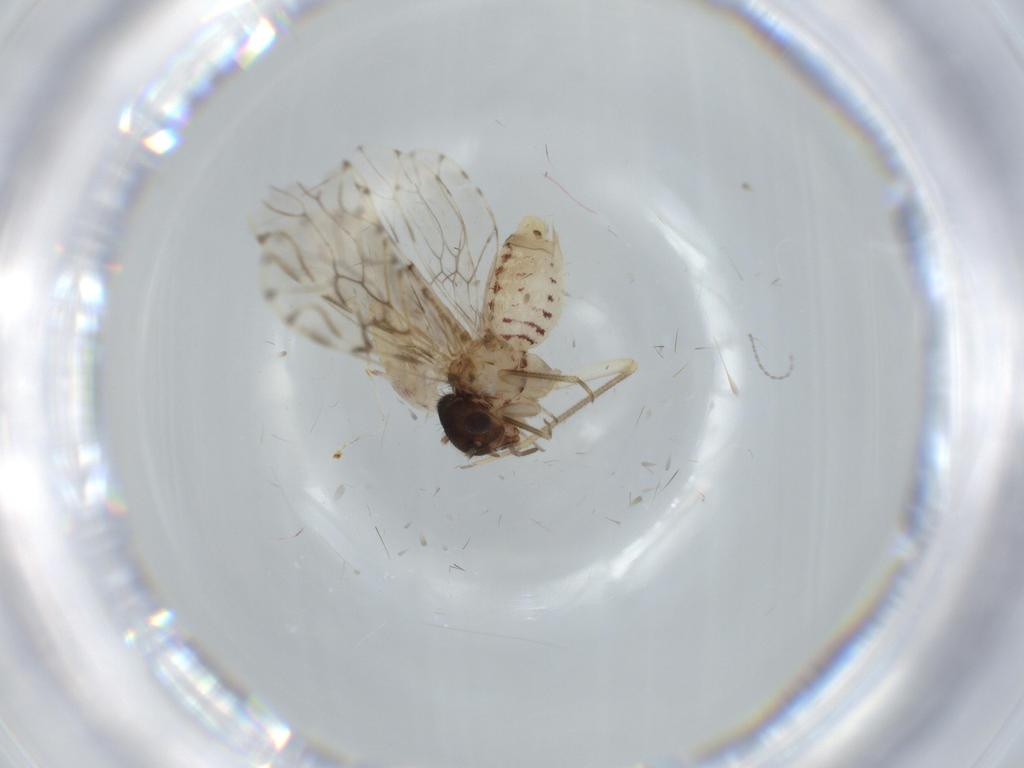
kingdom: Animalia
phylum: Arthropoda
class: Insecta
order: Psocodea
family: Epipsocidae
